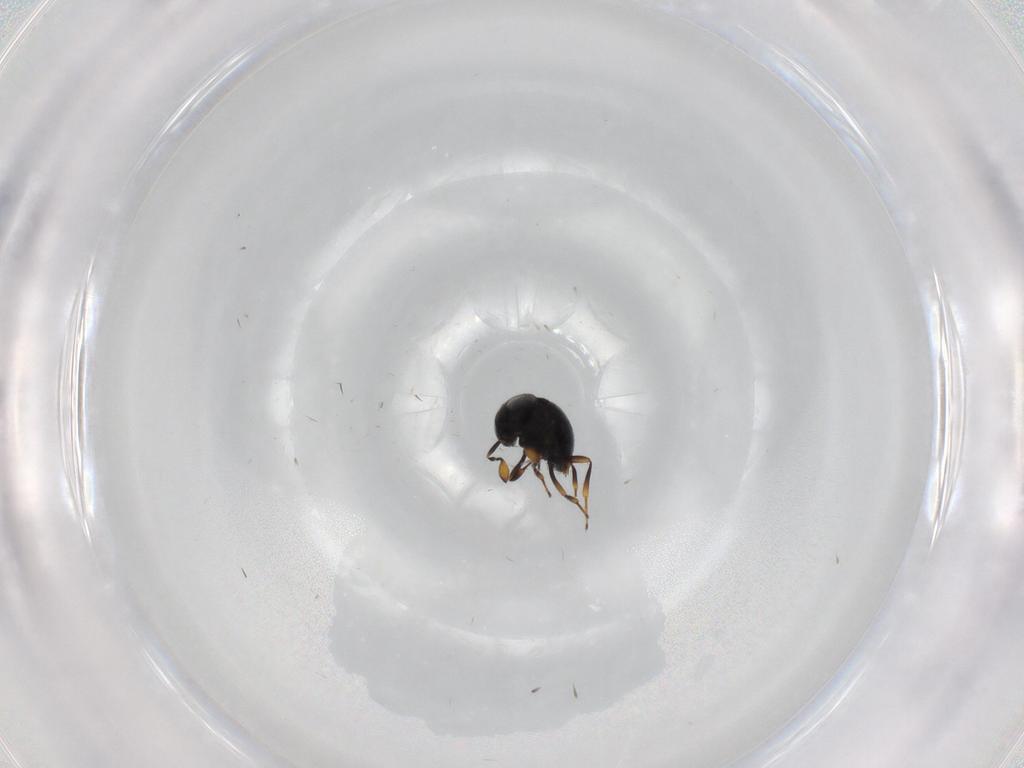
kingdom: Animalia
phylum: Arthropoda
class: Insecta
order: Hymenoptera
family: Scelionidae
